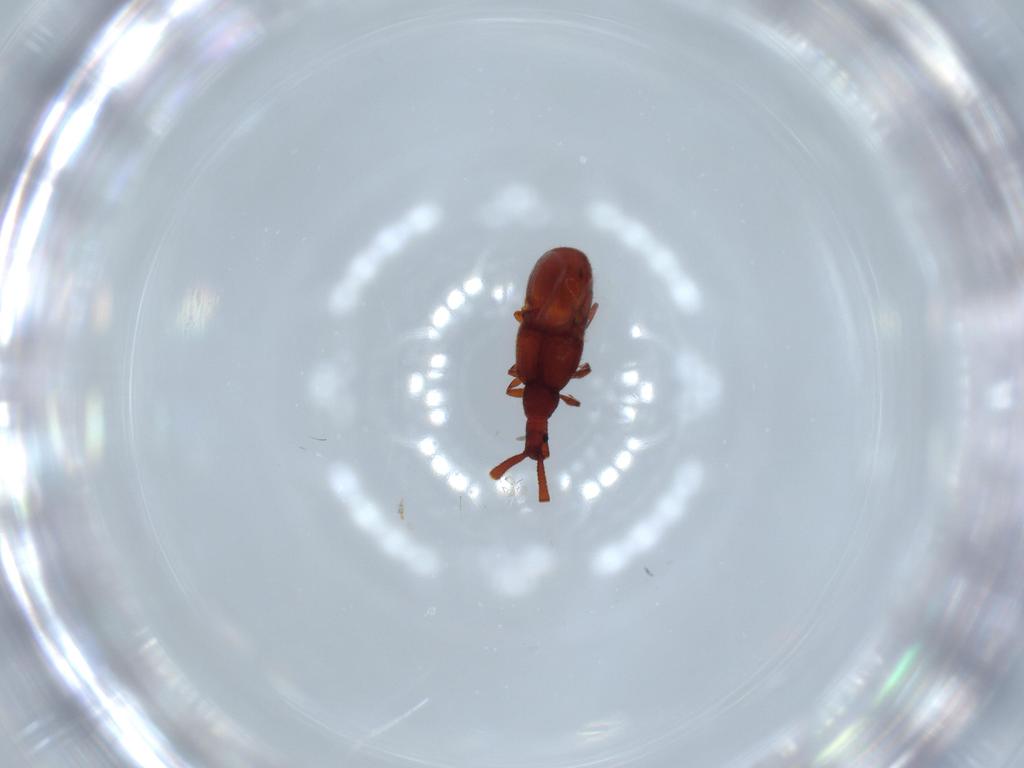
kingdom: Animalia
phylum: Arthropoda
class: Insecta
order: Coleoptera
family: Staphylinidae
